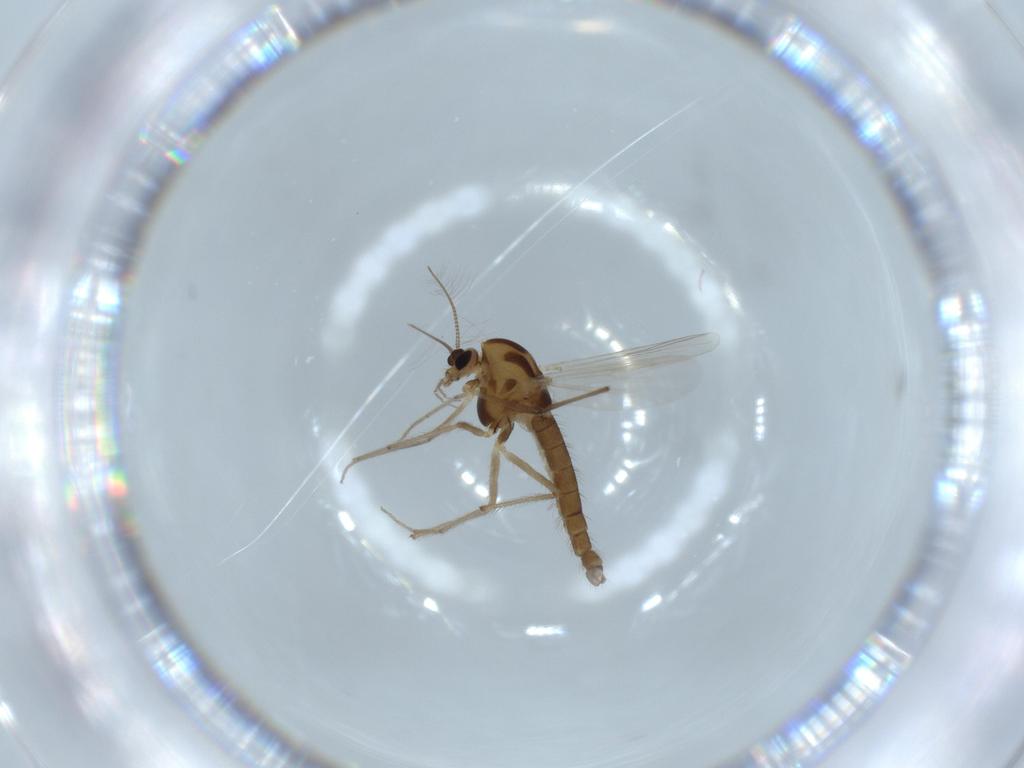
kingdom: Animalia
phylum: Arthropoda
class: Insecta
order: Diptera
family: Chironomidae
